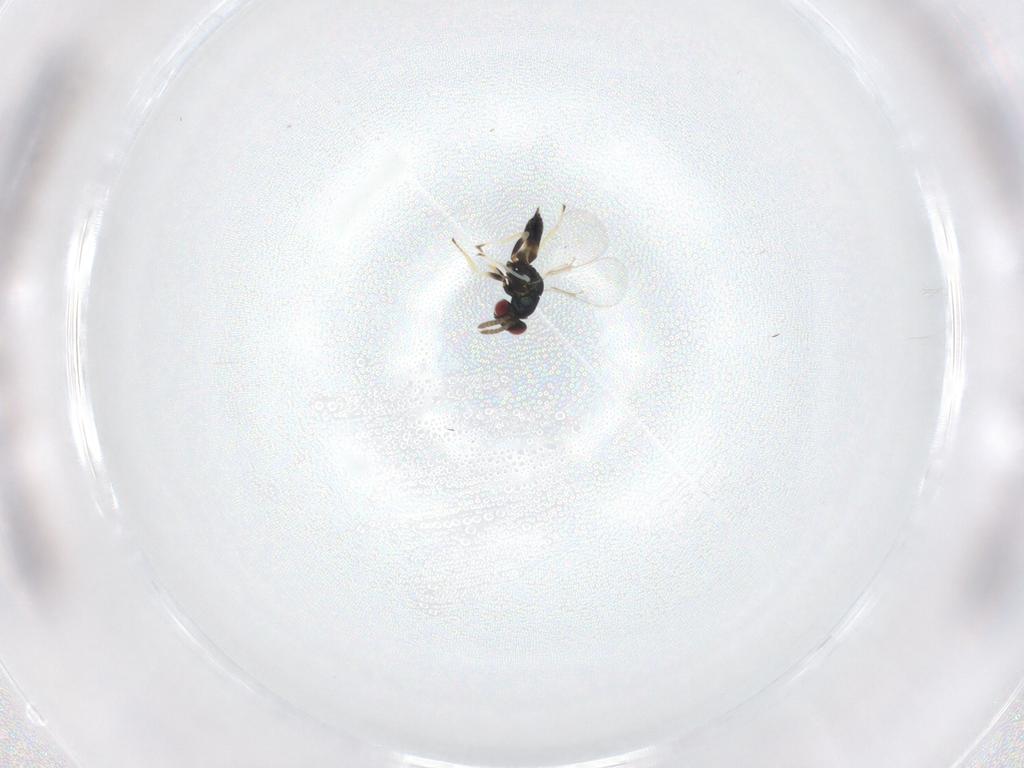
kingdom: Animalia
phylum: Arthropoda
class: Insecta
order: Hymenoptera
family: Eulophidae
